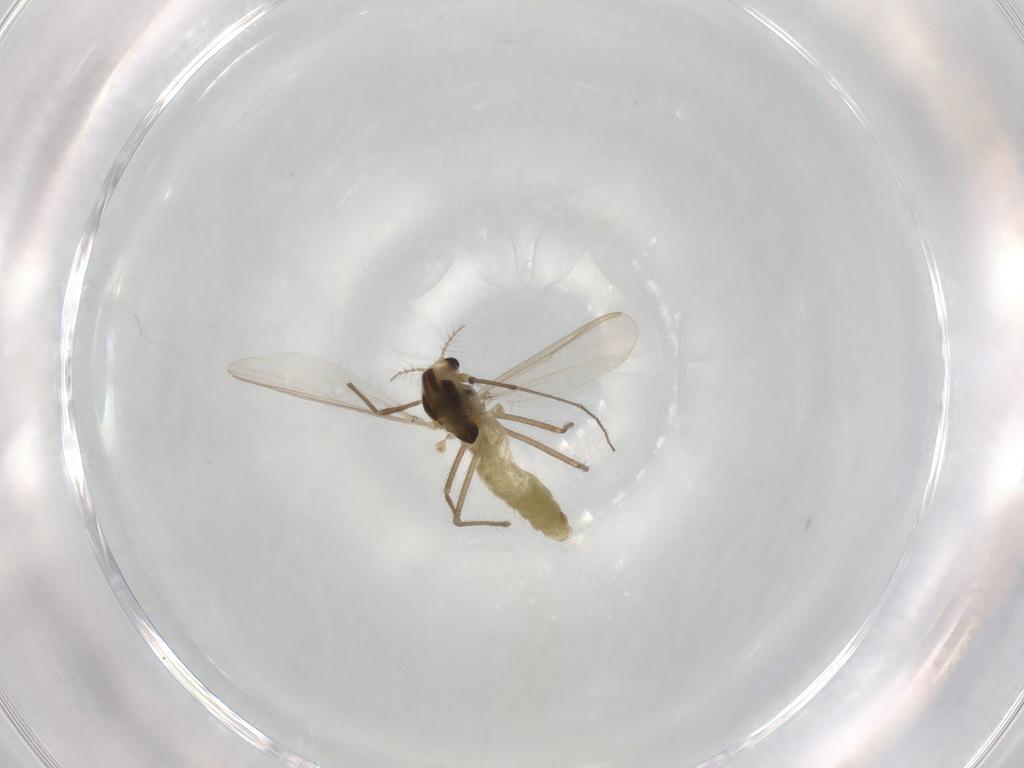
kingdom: Animalia
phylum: Arthropoda
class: Insecta
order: Diptera
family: Chironomidae
